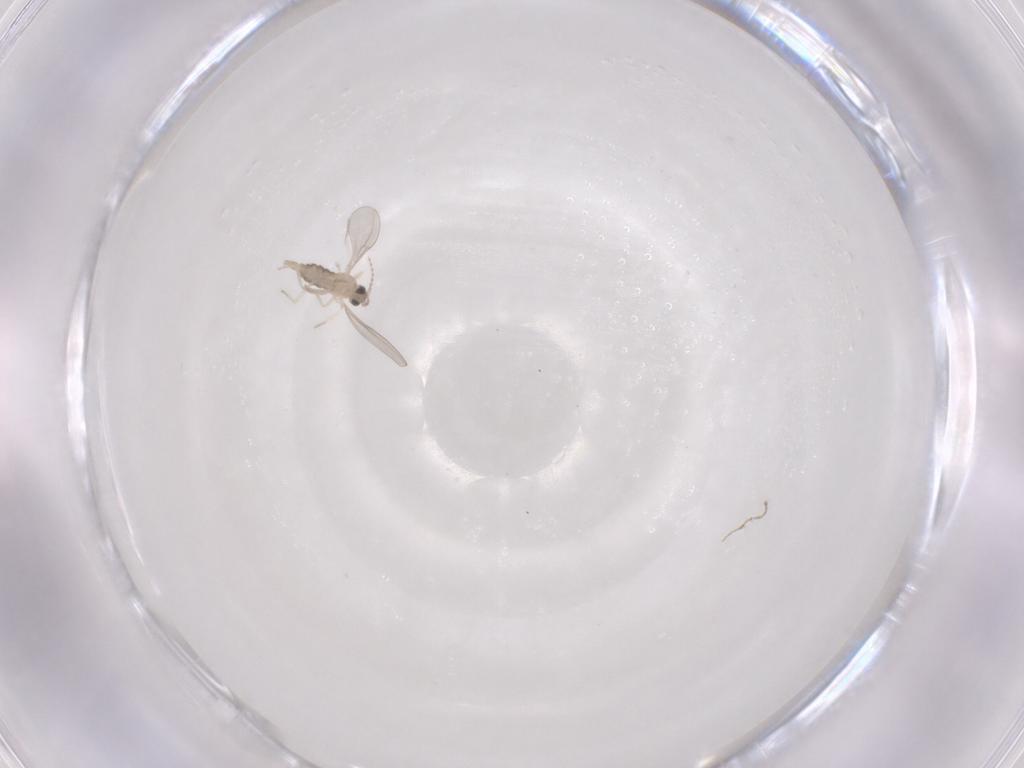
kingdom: Animalia
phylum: Arthropoda
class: Insecta
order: Diptera
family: Cecidomyiidae
